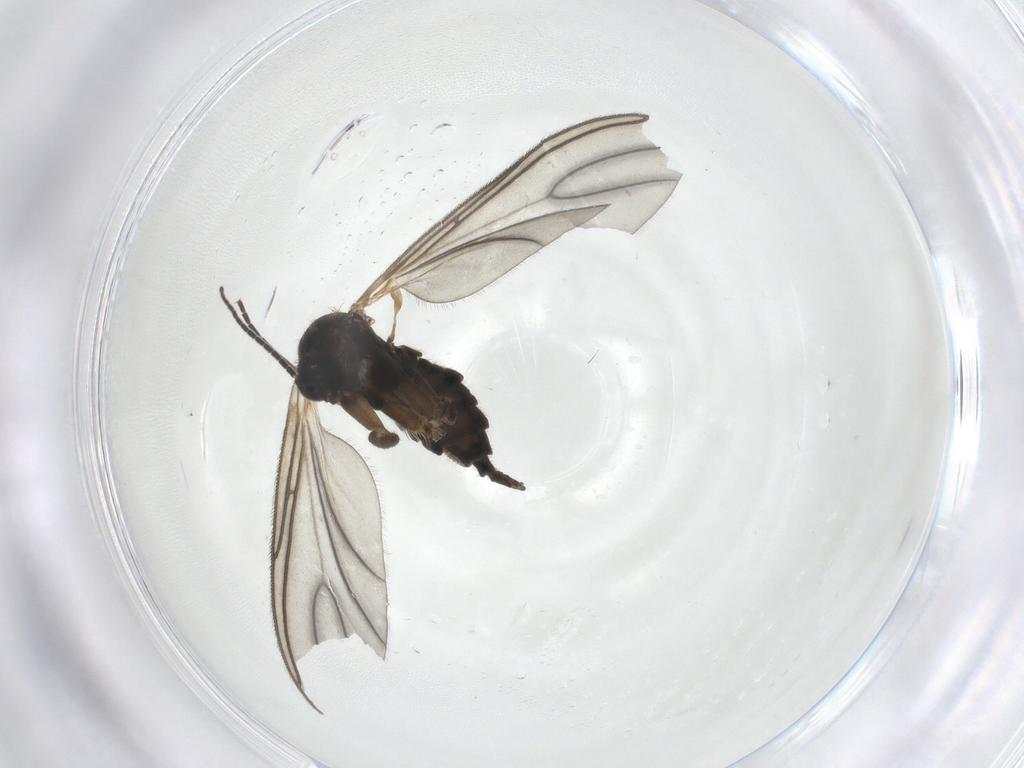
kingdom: Animalia
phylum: Arthropoda
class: Insecta
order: Diptera
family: Sciaridae
